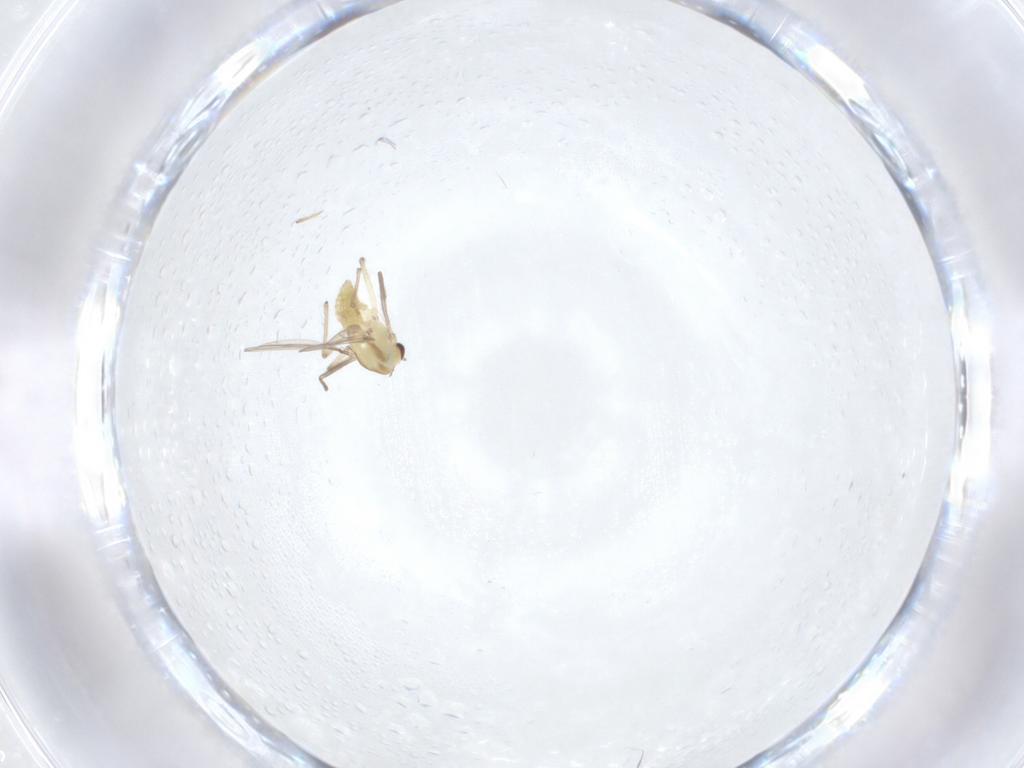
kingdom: Animalia
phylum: Arthropoda
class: Insecta
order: Diptera
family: Chironomidae
